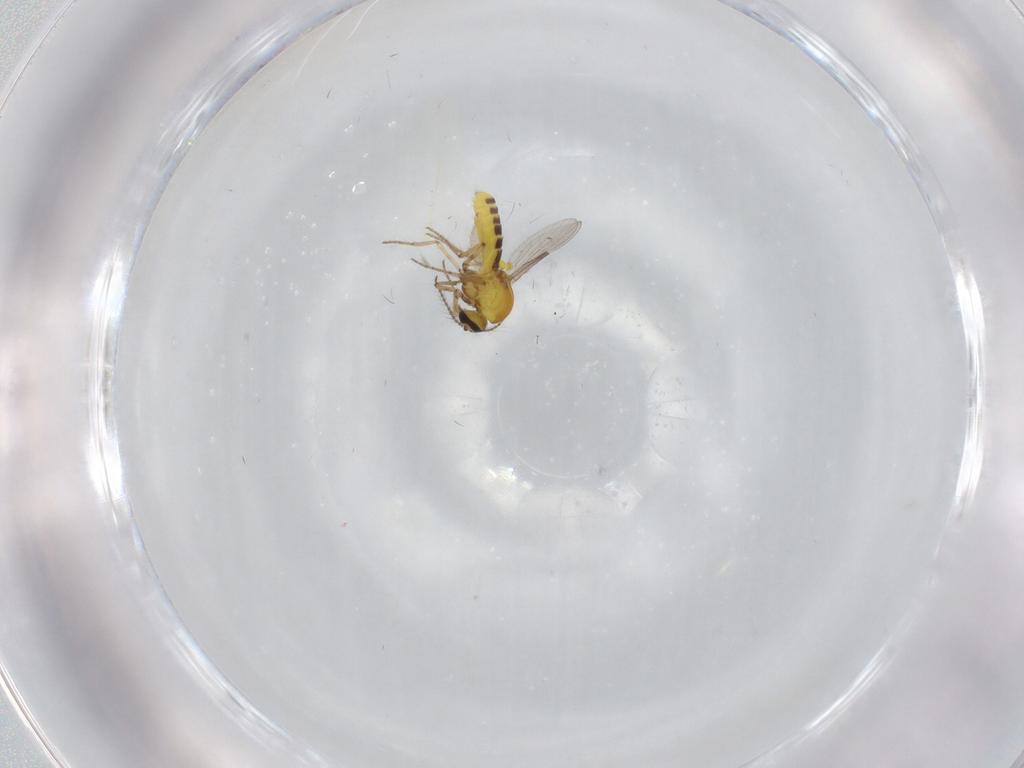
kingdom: Animalia
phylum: Arthropoda
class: Insecta
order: Diptera
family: Ceratopogonidae
